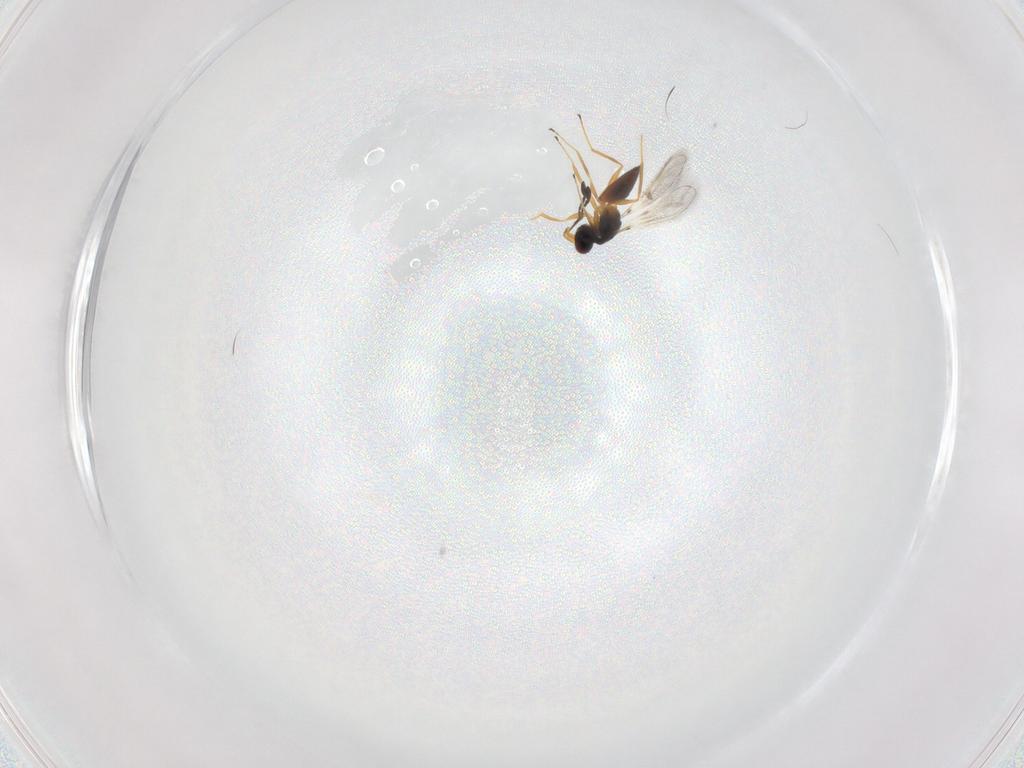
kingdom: Animalia
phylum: Arthropoda
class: Insecta
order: Hymenoptera
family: Mymaridae
